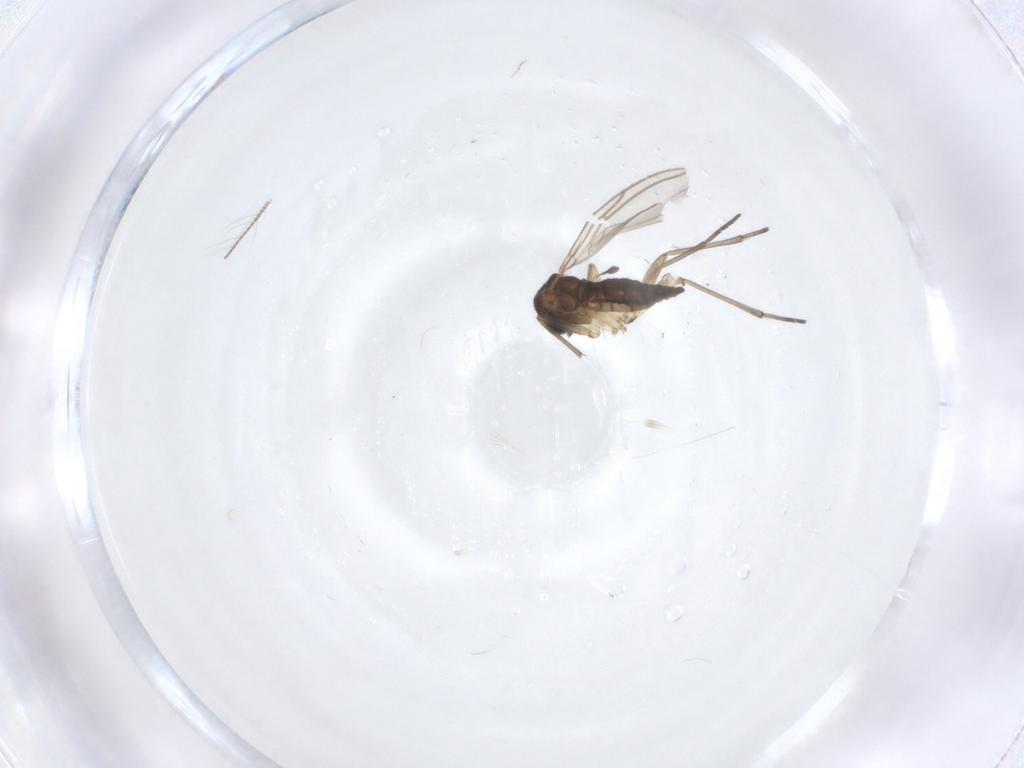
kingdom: Animalia
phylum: Arthropoda
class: Insecta
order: Diptera
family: Sciaridae
